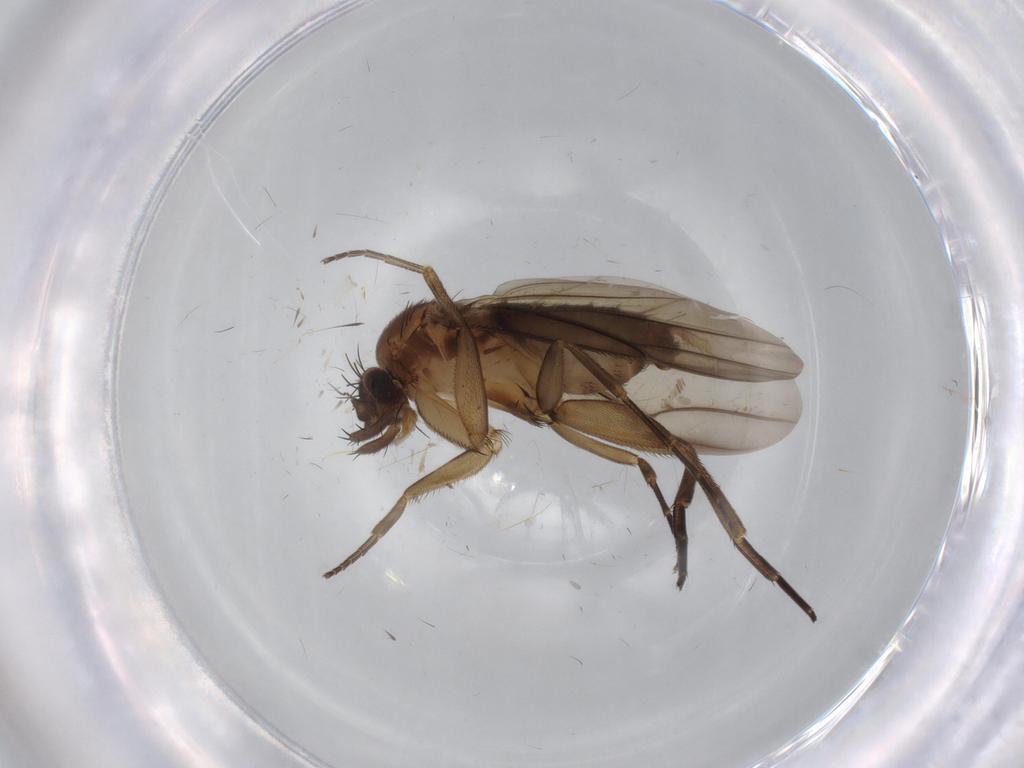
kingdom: Animalia
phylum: Arthropoda
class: Insecta
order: Diptera
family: Phoridae
